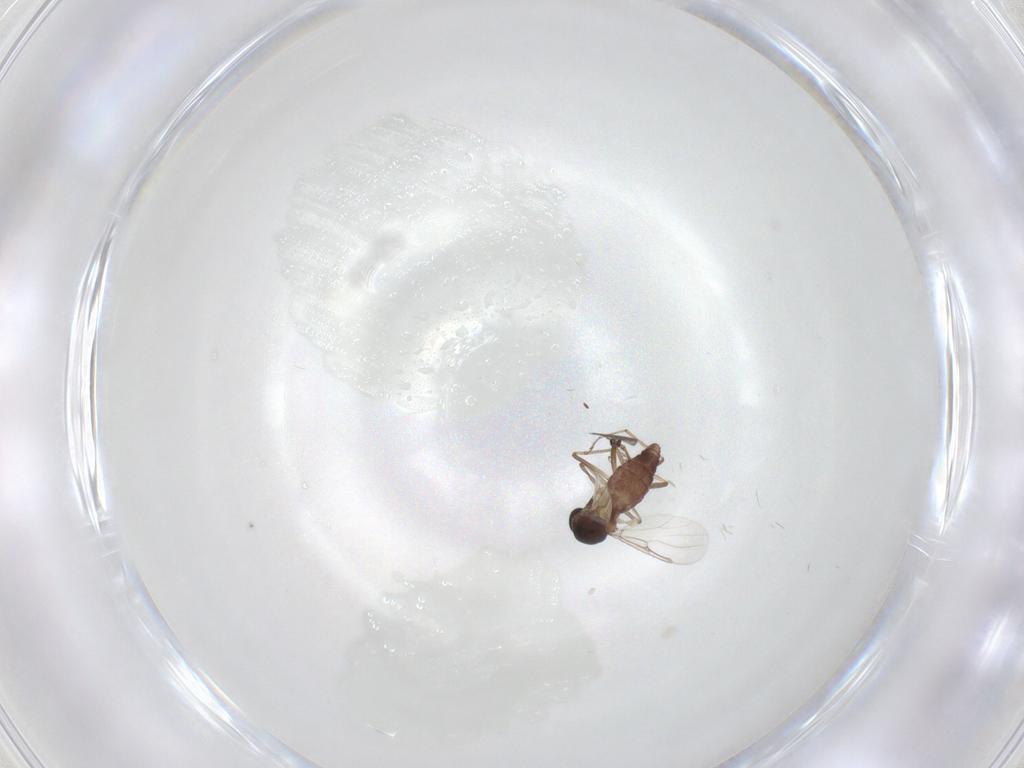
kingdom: Animalia
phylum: Arthropoda
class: Insecta
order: Diptera
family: Ceratopogonidae
